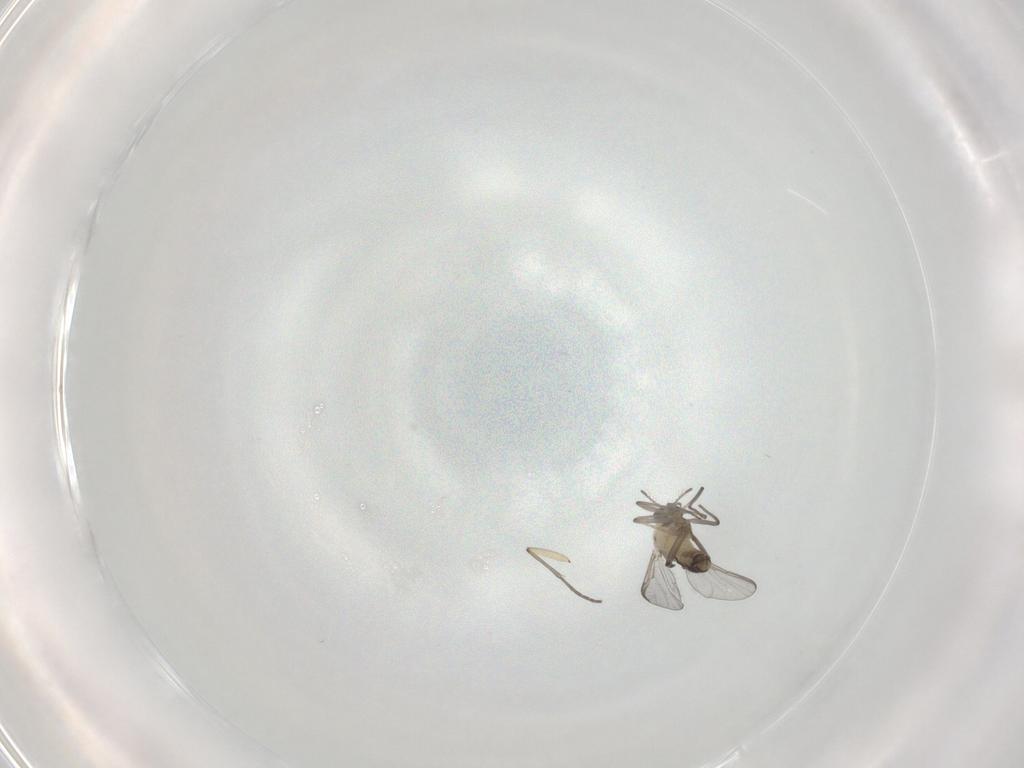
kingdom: Animalia
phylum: Arthropoda
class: Insecta
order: Diptera
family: Chironomidae
